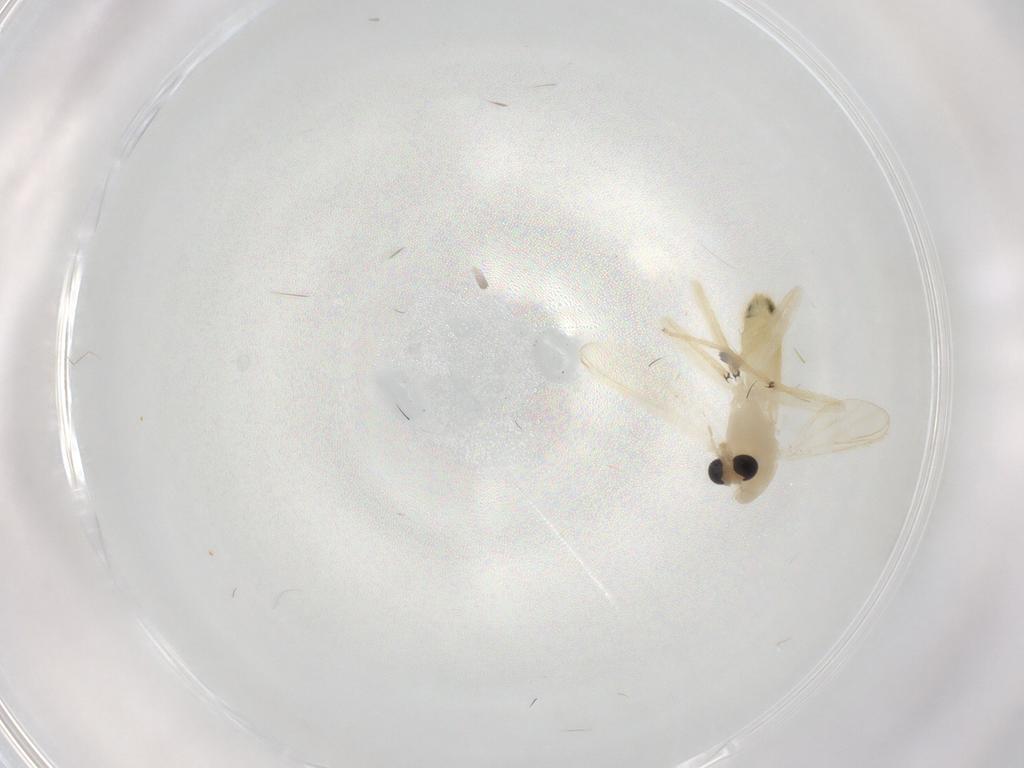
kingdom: Animalia
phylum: Arthropoda
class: Insecta
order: Diptera
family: Chironomidae
